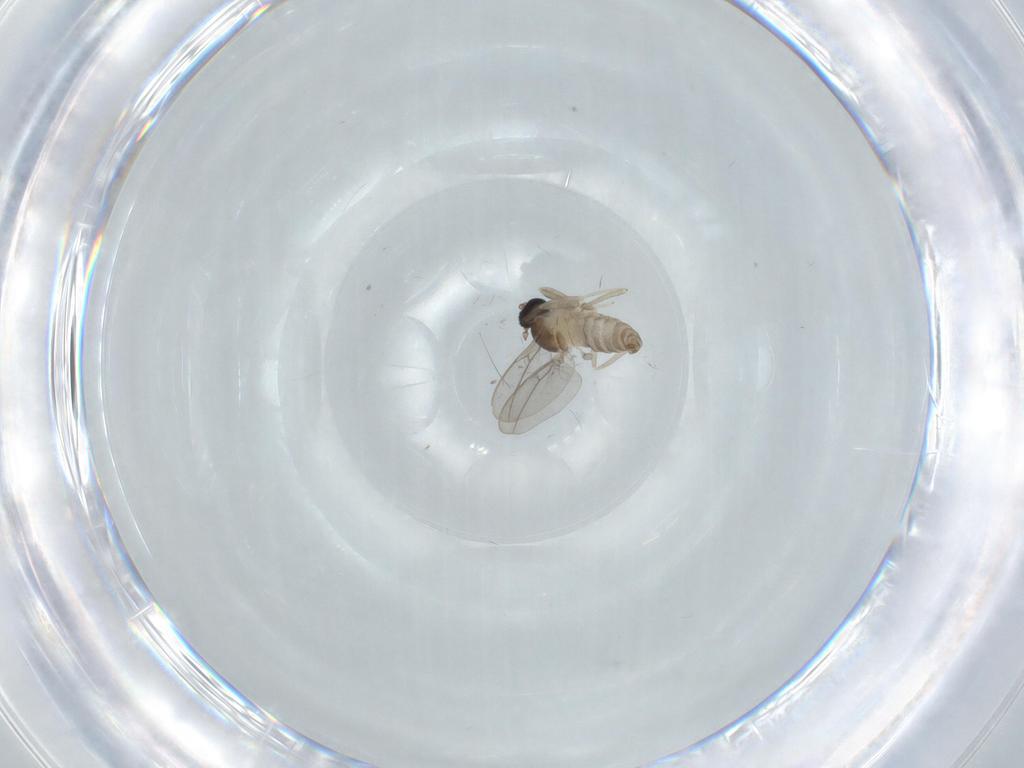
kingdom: Animalia
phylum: Arthropoda
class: Insecta
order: Diptera
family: Cecidomyiidae
